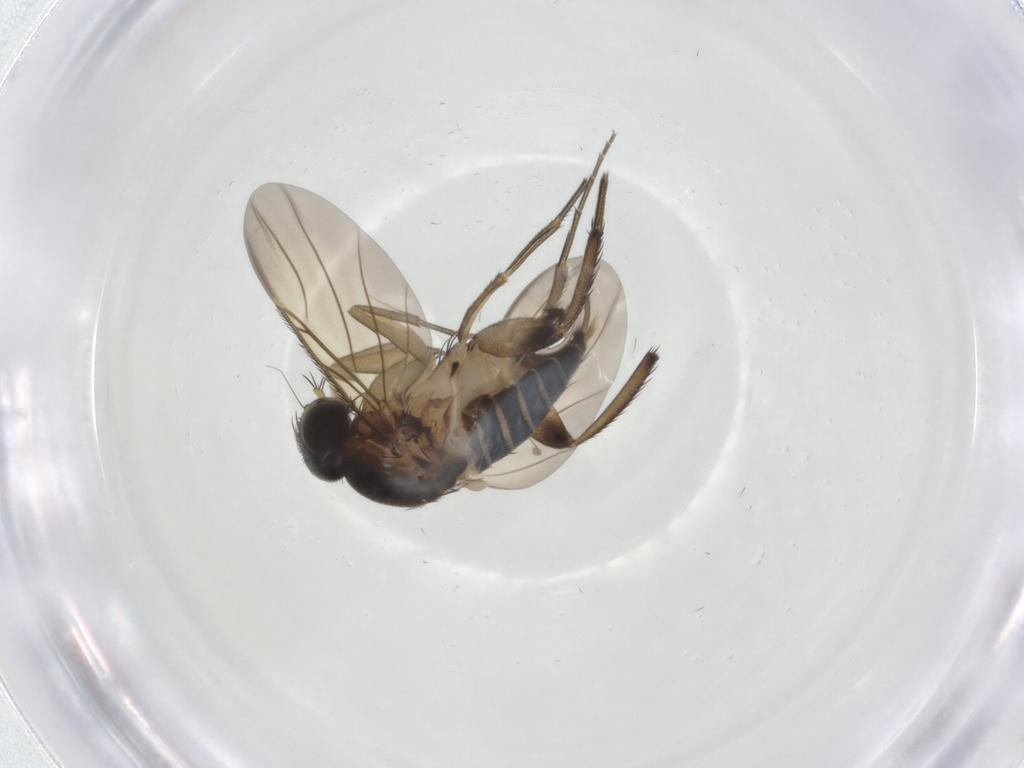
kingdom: Animalia
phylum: Arthropoda
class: Insecta
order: Diptera
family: Phoridae
